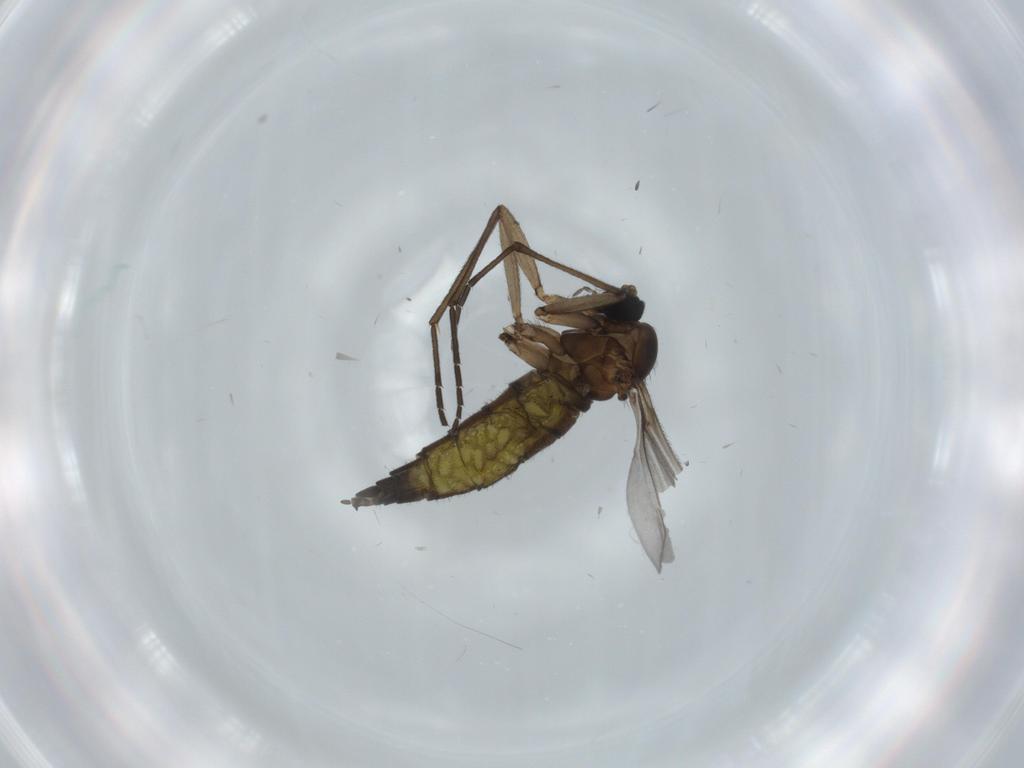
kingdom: Animalia
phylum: Arthropoda
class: Insecta
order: Diptera
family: Sciaridae
